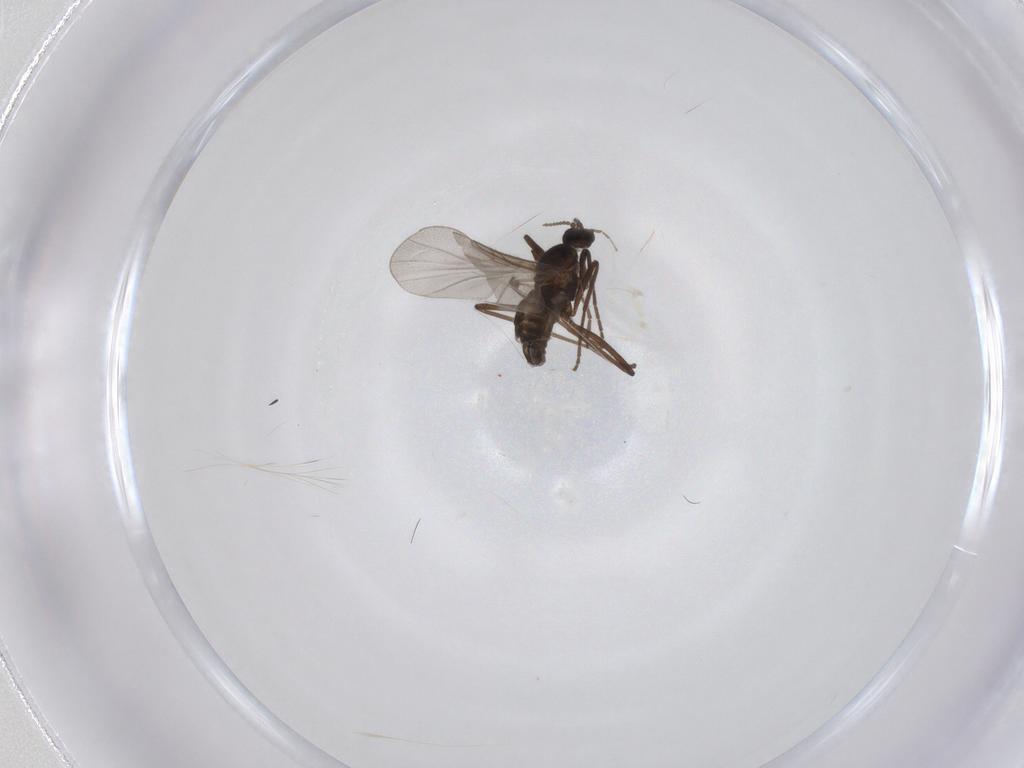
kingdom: Animalia
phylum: Arthropoda
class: Insecta
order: Diptera
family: Cecidomyiidae
